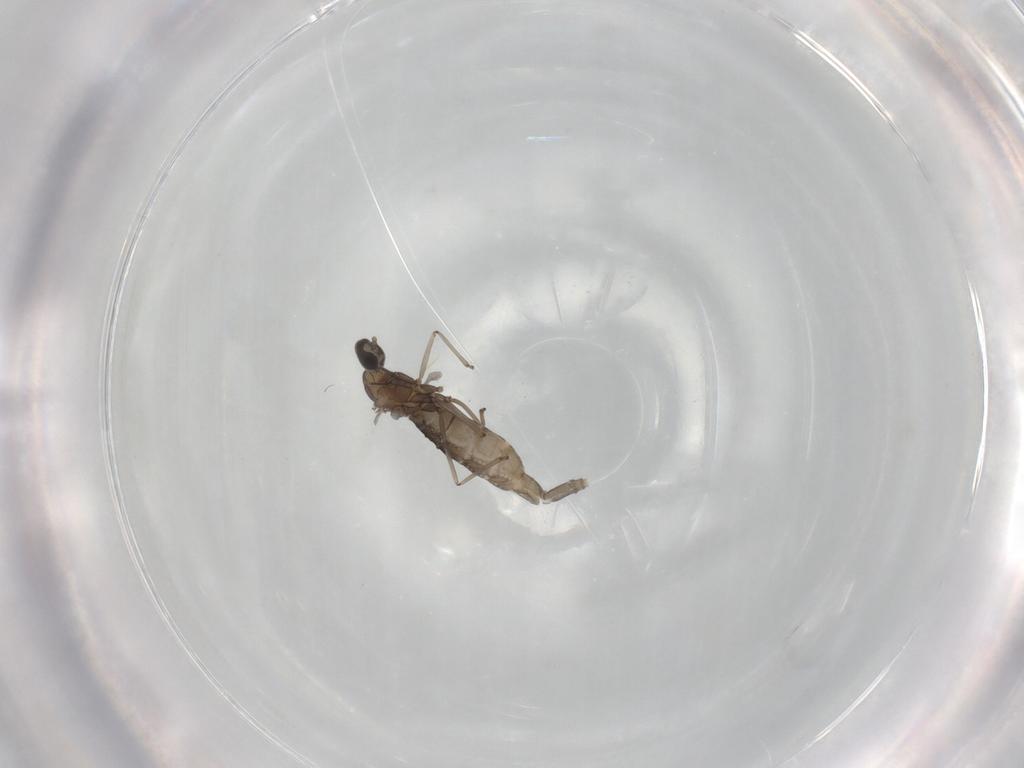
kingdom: Animalia
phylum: Arthropoda
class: Insecta
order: Diptera
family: Cecidomyiidae
